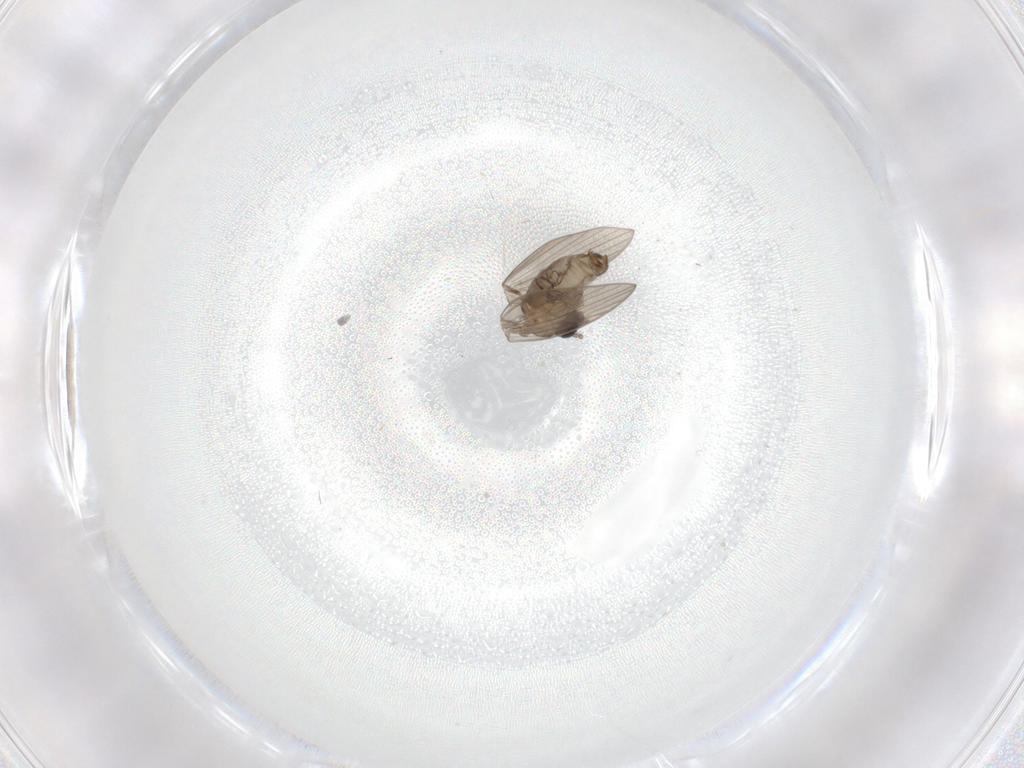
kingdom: Animalia
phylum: Arthropoda
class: Insecta
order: Diptera
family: Psychodidae
